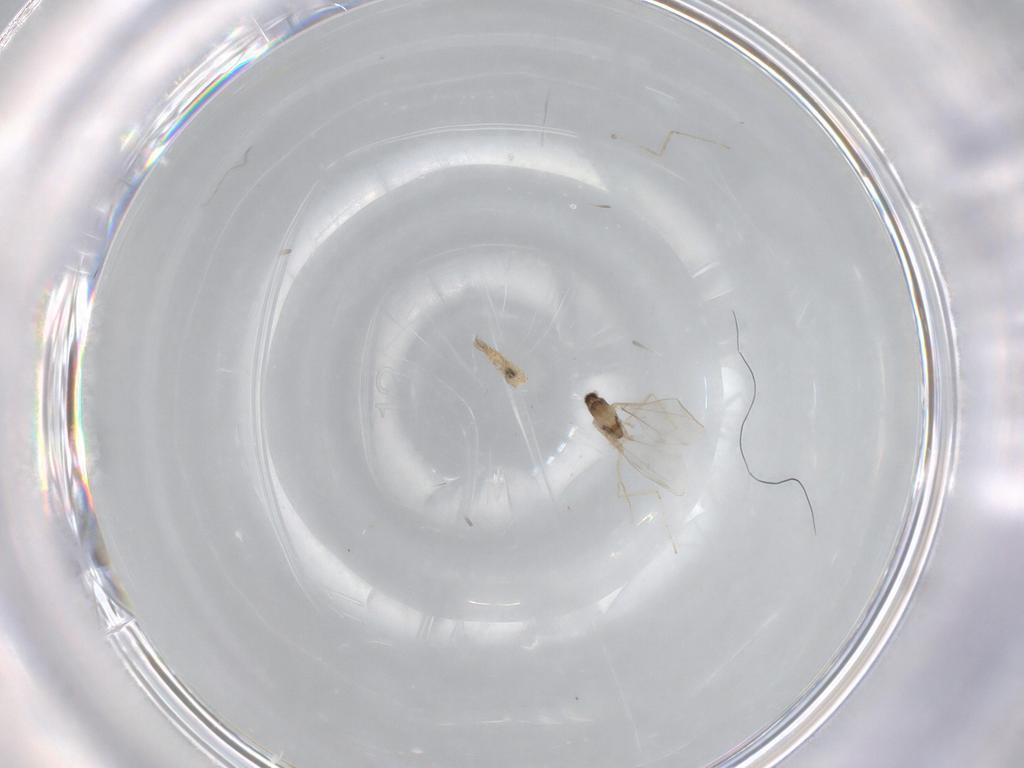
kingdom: Animalia
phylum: Arthropoda
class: Insecta
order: Diptera
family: Cecidomyiidae
